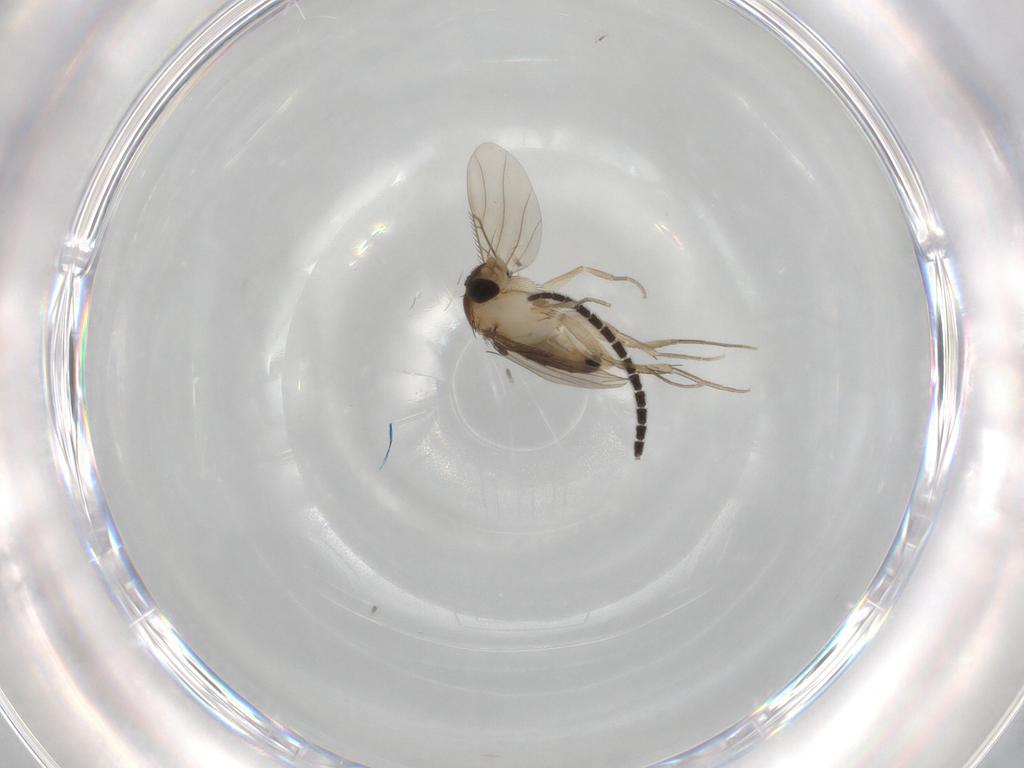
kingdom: Animalia
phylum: Arthropoda
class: Insecta
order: Diptera
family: Phoridae
